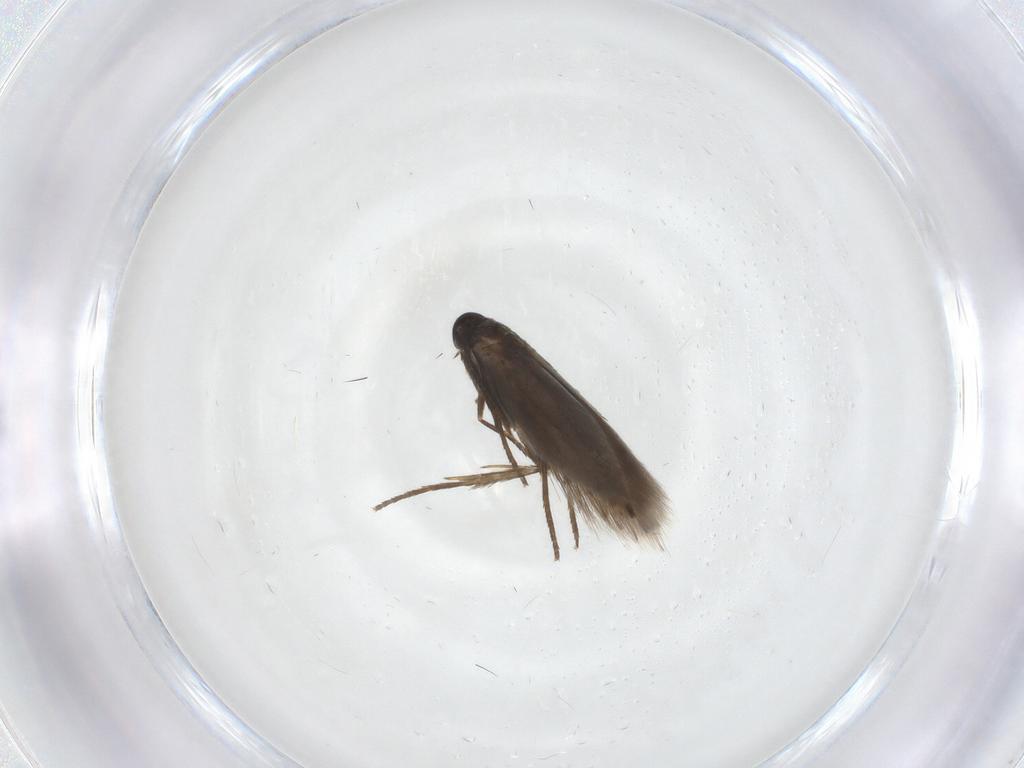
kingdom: Animalia
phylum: Arthropoda
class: Insecta
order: Lepidoptera
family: Heliozelidae
